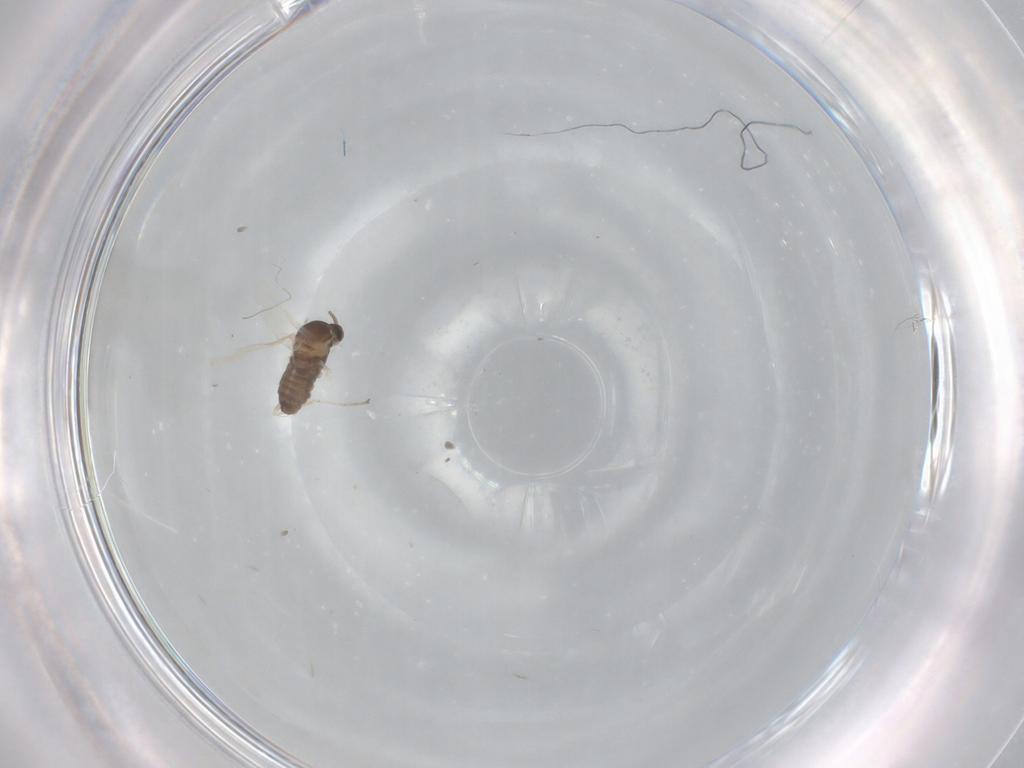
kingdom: Animalia
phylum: Arthropoda
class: Insecta
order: Diptera
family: Cecidomyiidae
